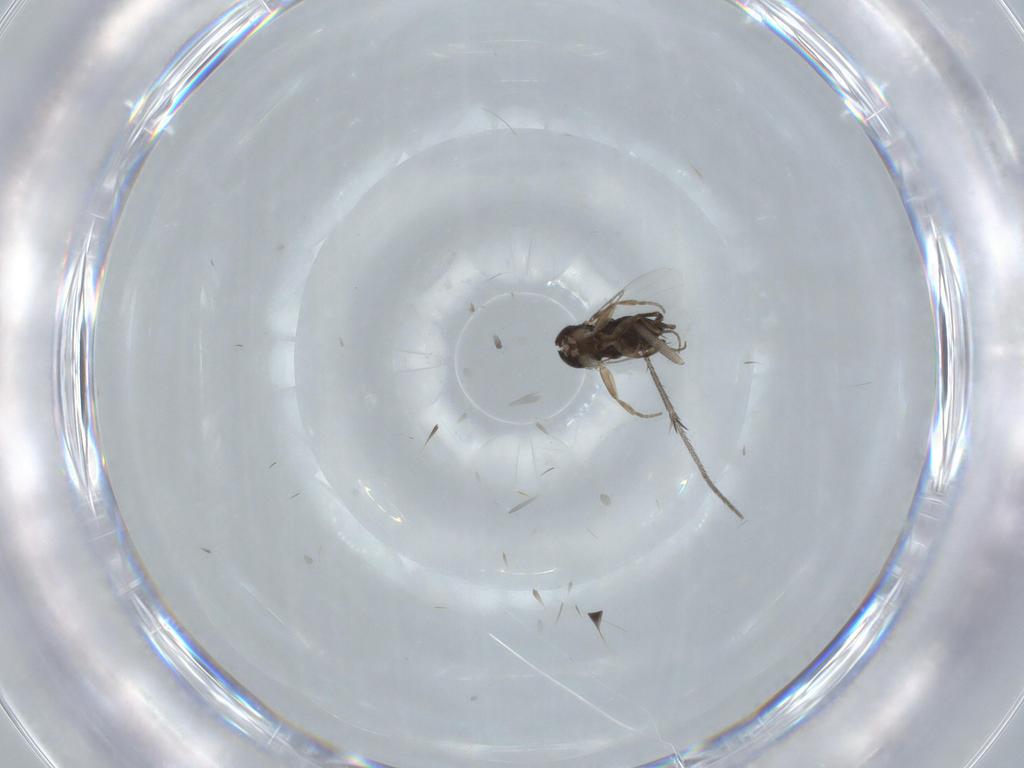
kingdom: Animalia
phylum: Arthropoda
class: Insecta
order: Diptera
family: Phoridae
